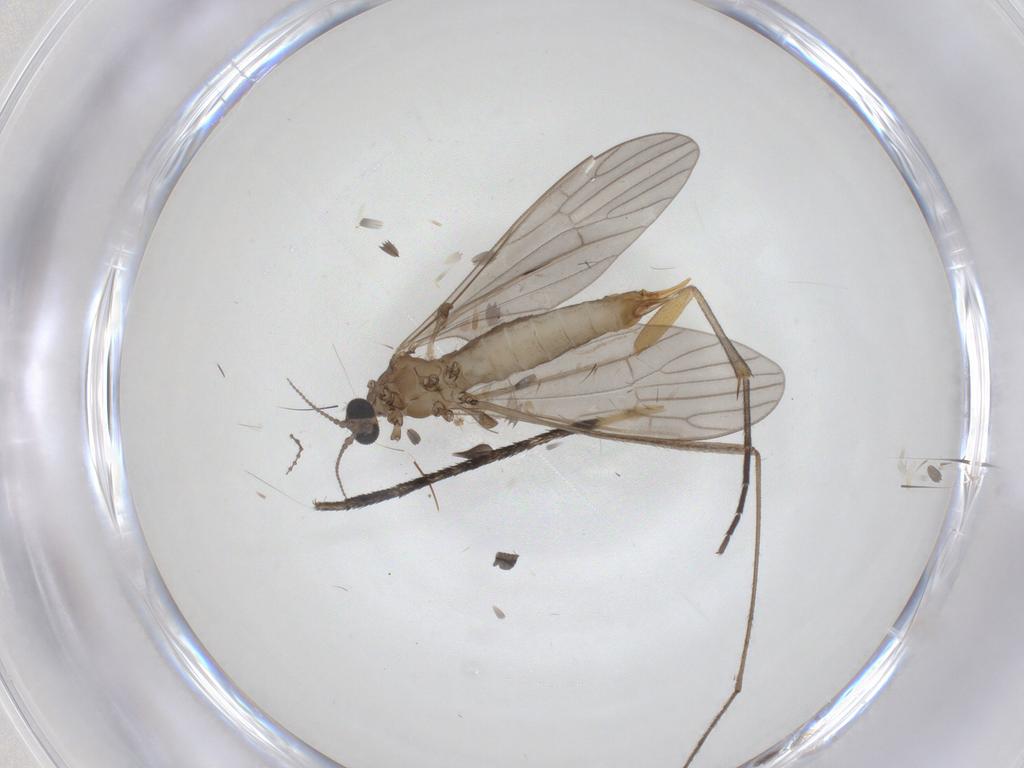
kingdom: Animalia
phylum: Arthropoda
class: Insecta
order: Diptera
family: Limoniidae
